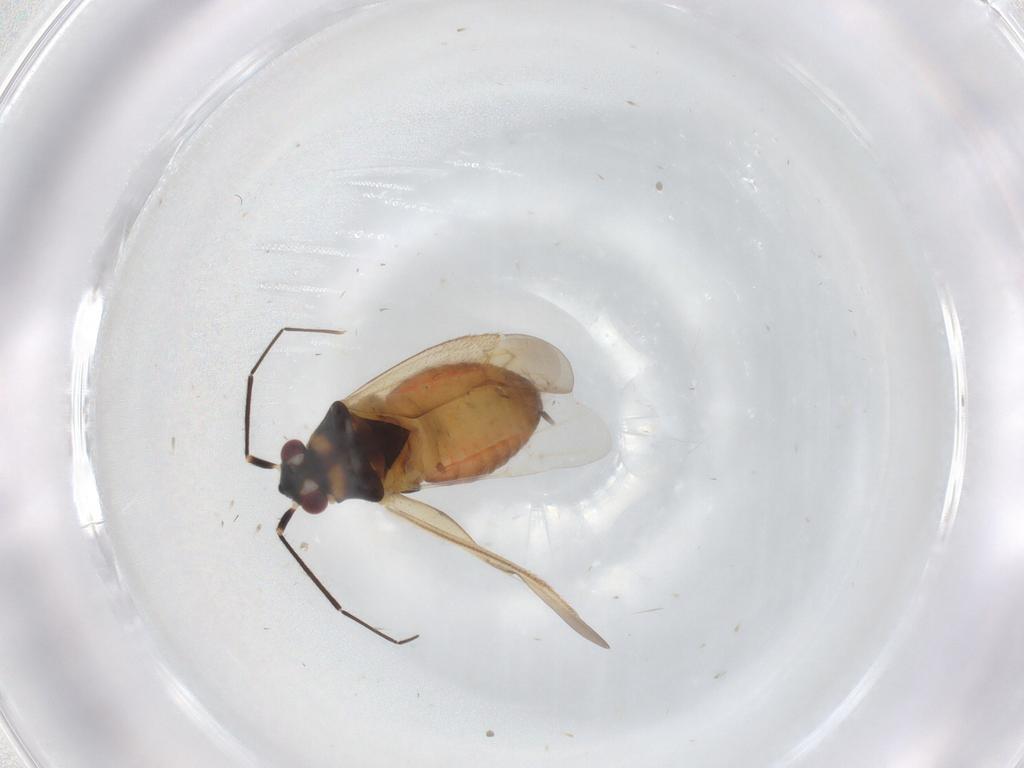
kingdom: Animalia
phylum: Arthropoda
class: Insecta
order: Hemiptera
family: Miridae
